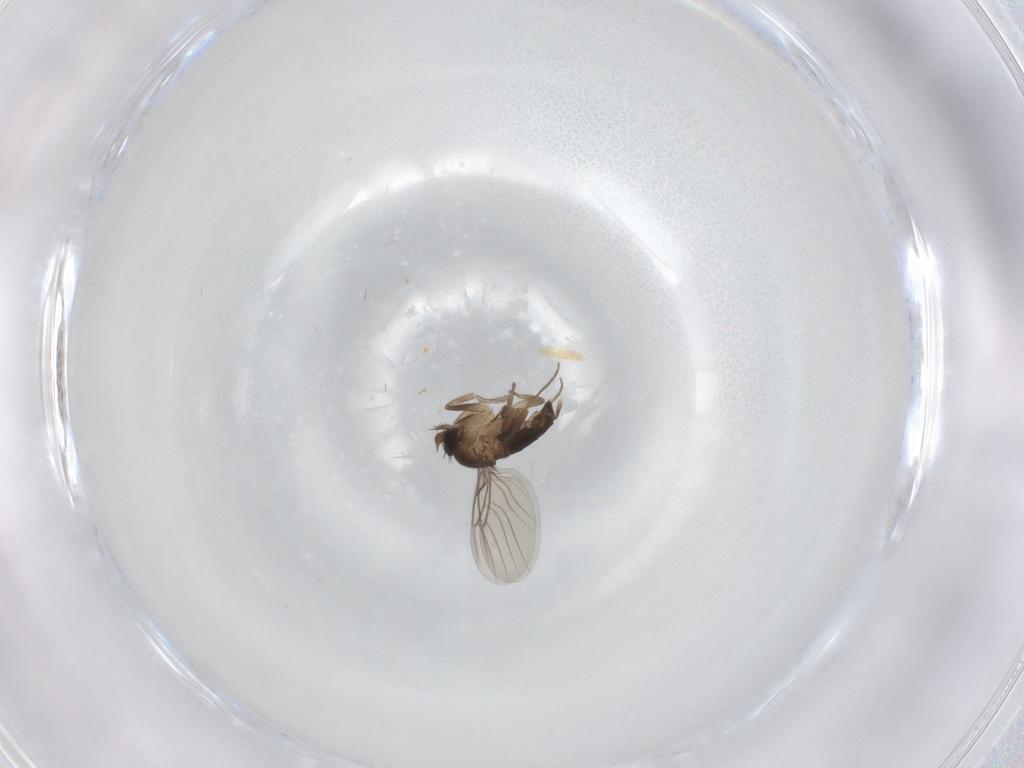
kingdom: Animalia
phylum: Arthropoda
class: Insecta
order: Diptera
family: Phoridae
